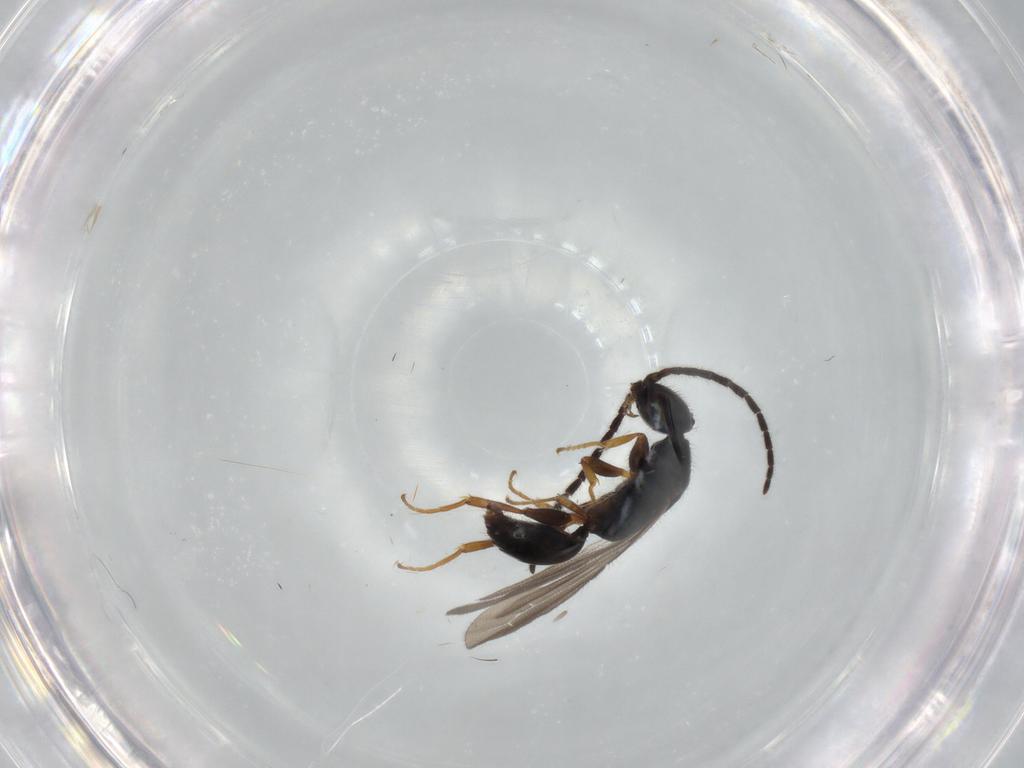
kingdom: Animalia
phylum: Arthropoda
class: Insecta
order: Hymenoptera
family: Bethylidae
